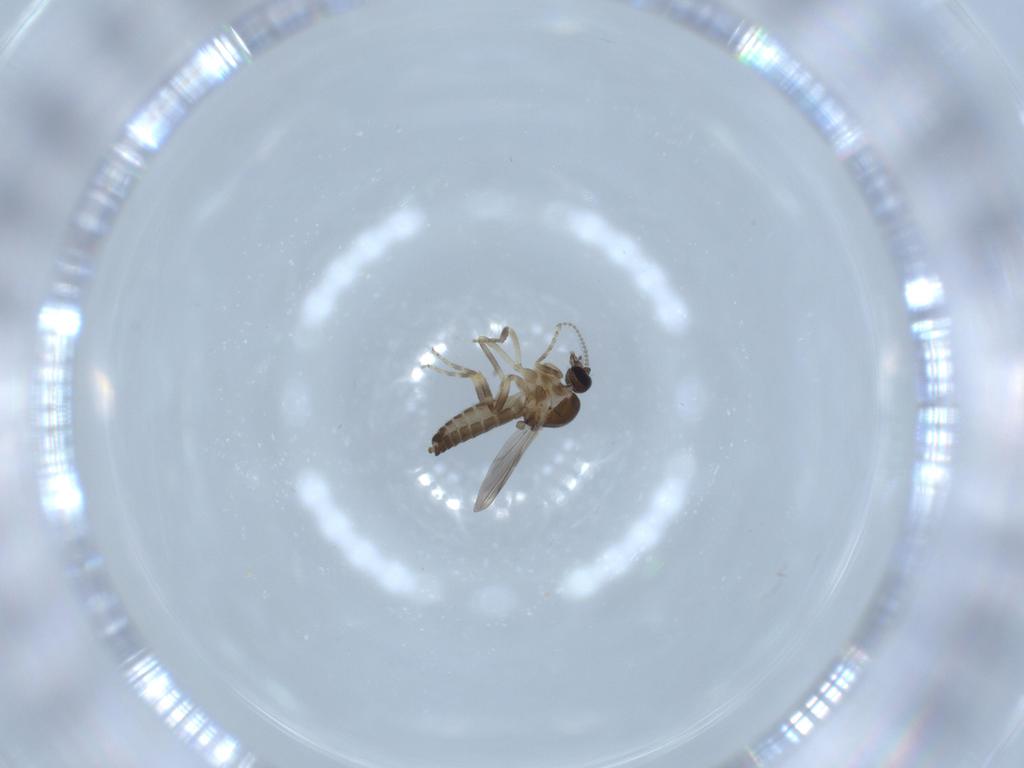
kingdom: Animalia
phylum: Arthropoda
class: Insecta
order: Diptera
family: Ceratopogonidae
